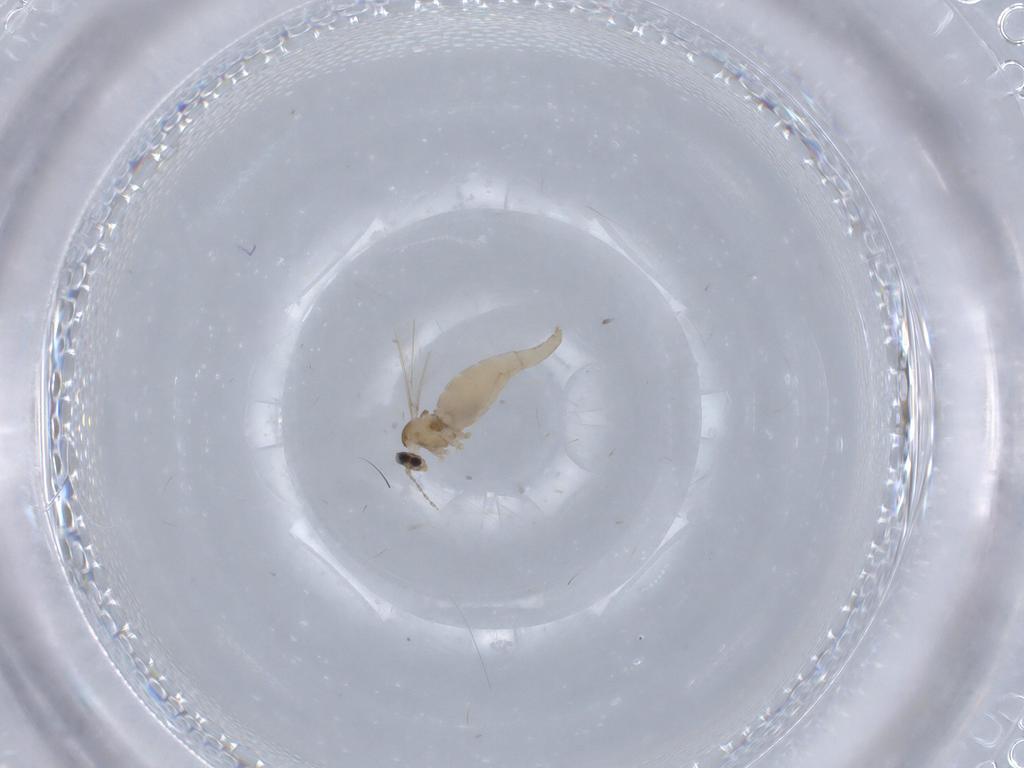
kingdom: Animalia
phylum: Arthropoda
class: Insecta
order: Diptera
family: Cecidomyiidae
